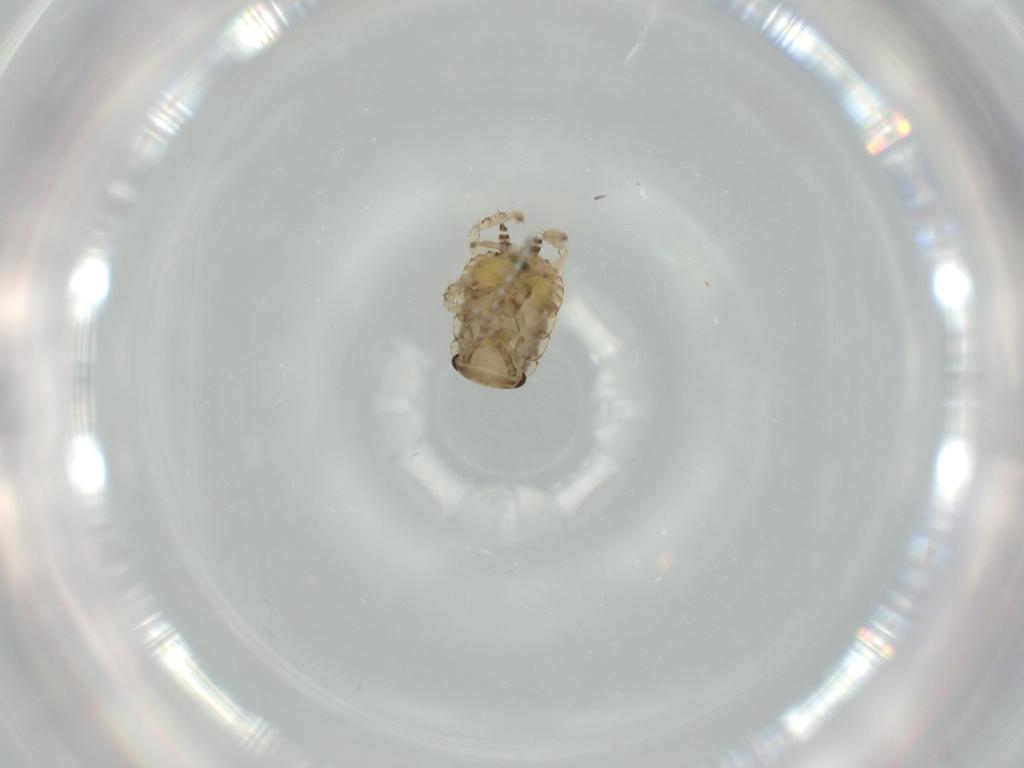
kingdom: Animalia
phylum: Arthropoda
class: Insecta
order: Blattodea
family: Ectobiidae
